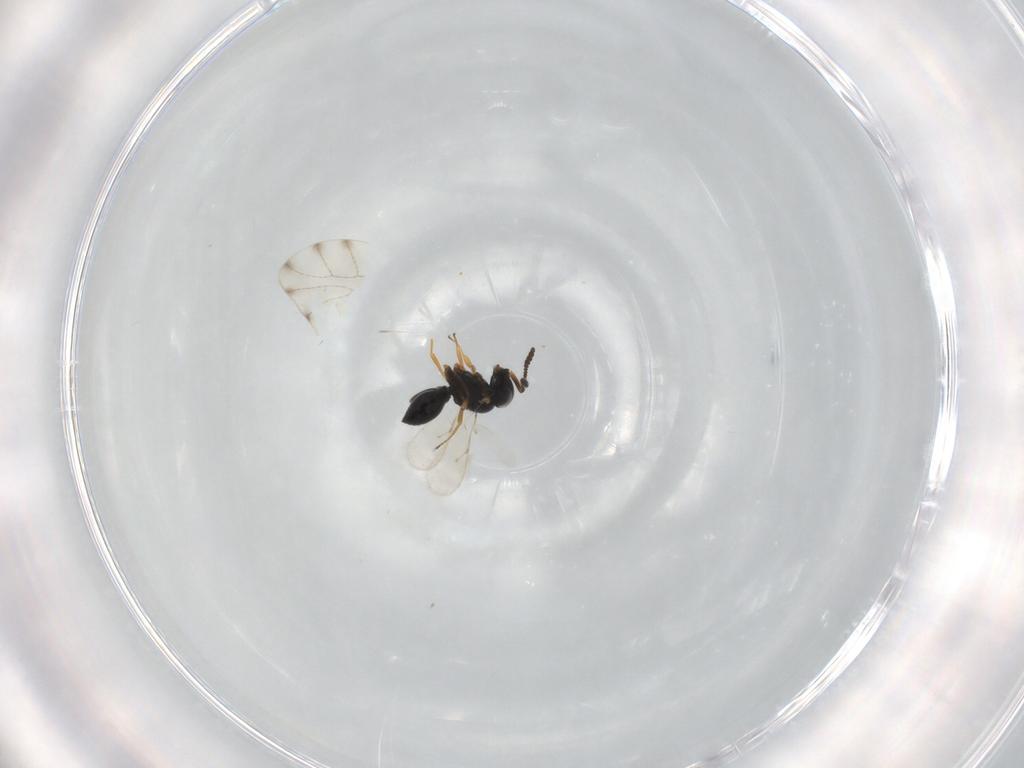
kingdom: Animalia
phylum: Arthropoda
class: Insecta
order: Hymenoptera
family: Scelionidae
